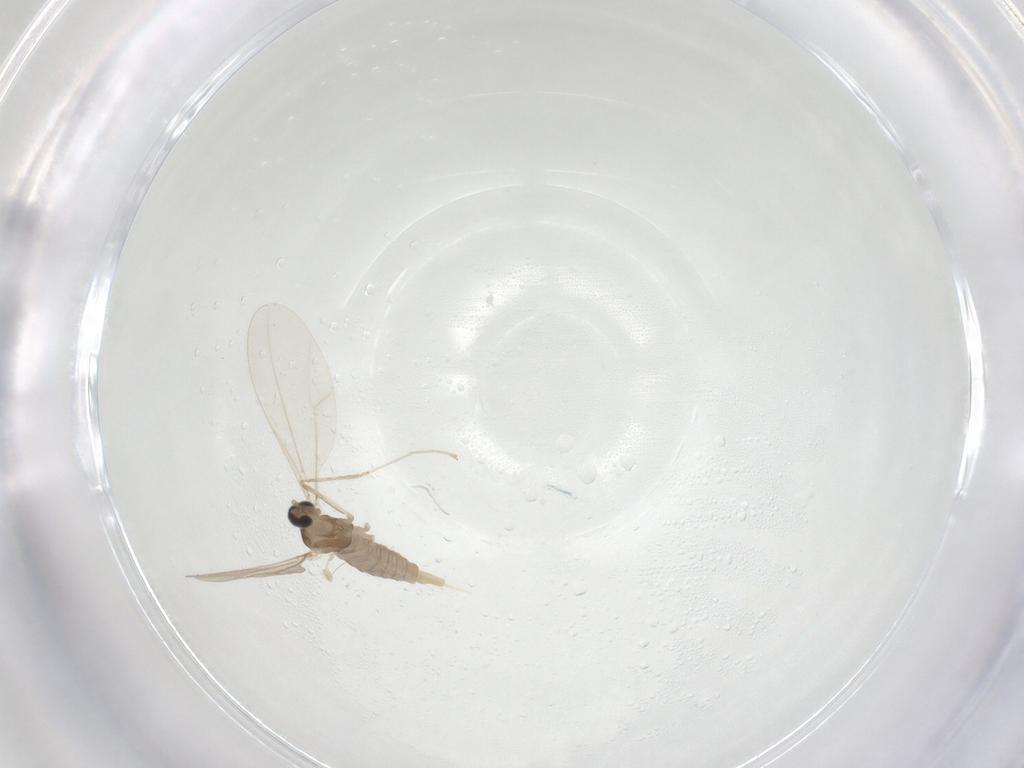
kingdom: Animalia
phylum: Arthropoda
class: Insecta
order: Diptera
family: Cecidomyiidae
